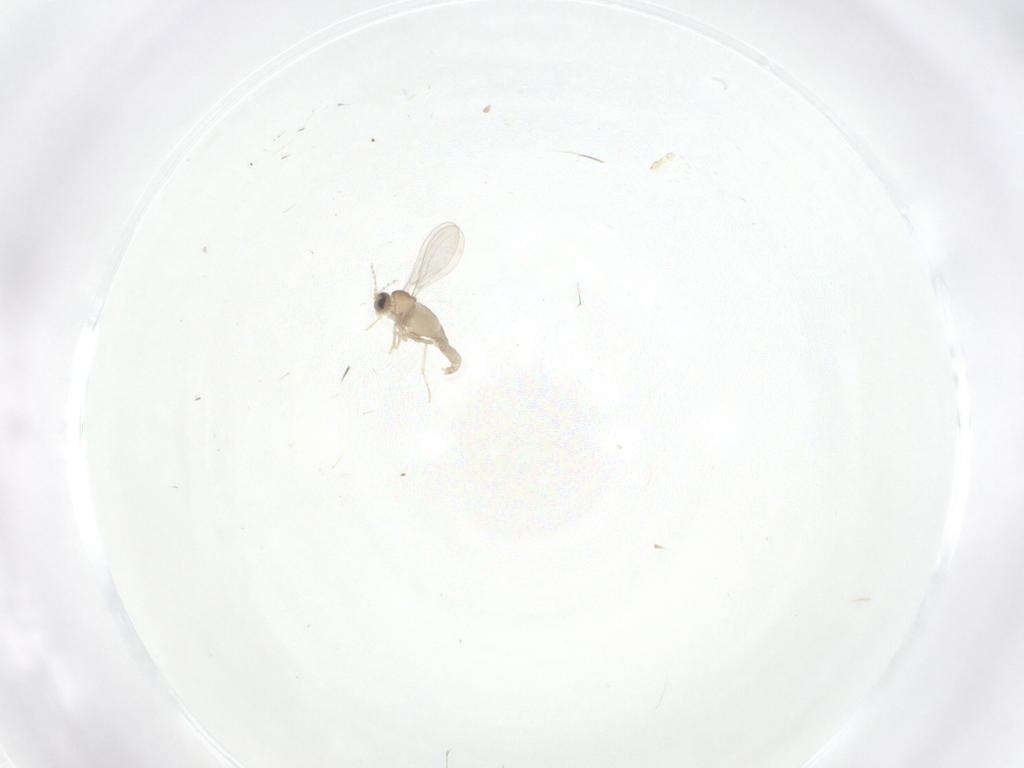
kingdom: Animalia
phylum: Arthropoda
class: Insecta
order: Diptera
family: Cecidomyiidae
